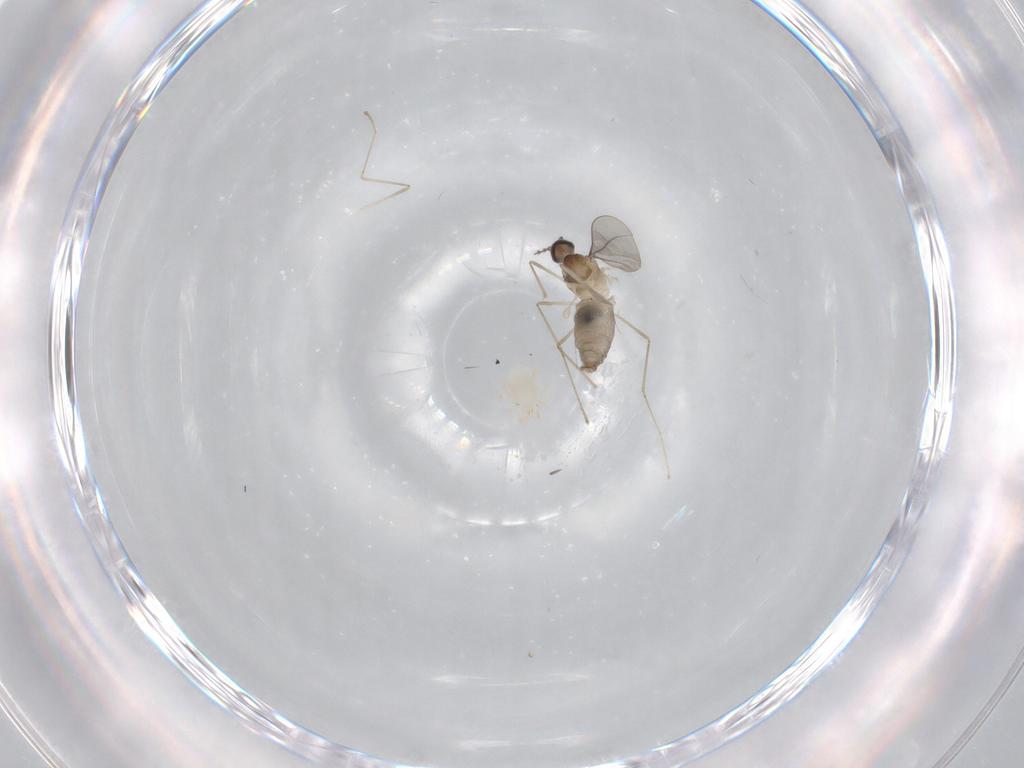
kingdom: Animalia
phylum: Arthropoda
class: Insecta
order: Diptera
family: Cecidomyiidae
